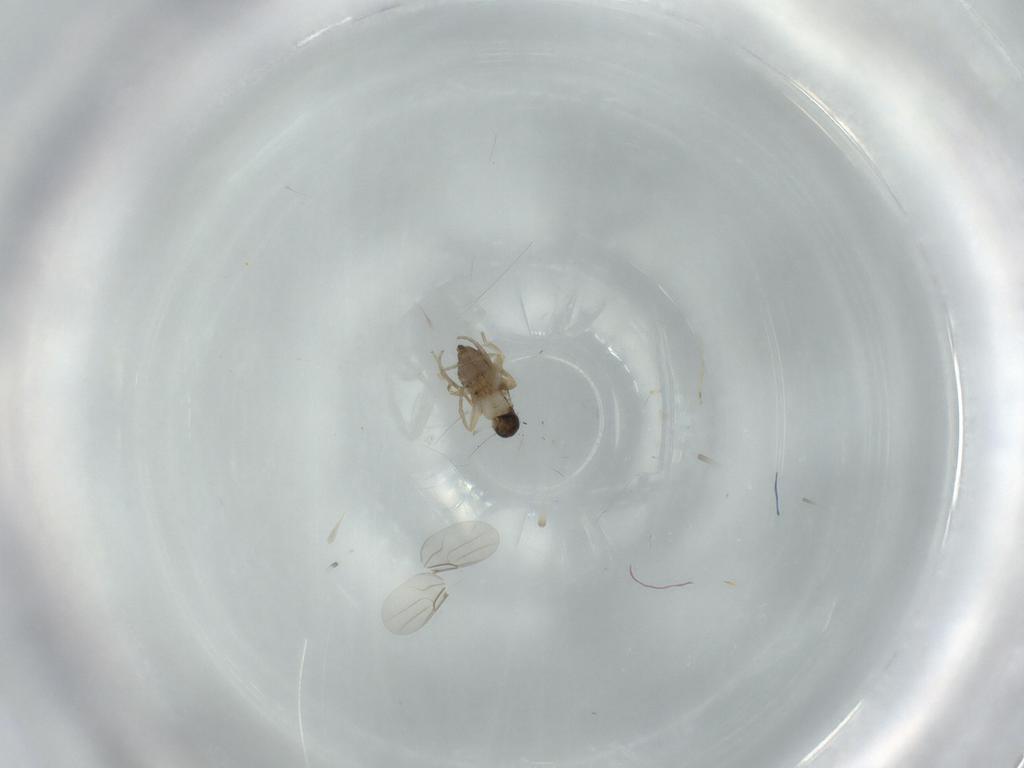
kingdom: Animalia
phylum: Arthropoda
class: Insecta
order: Diptera
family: Phoridae
